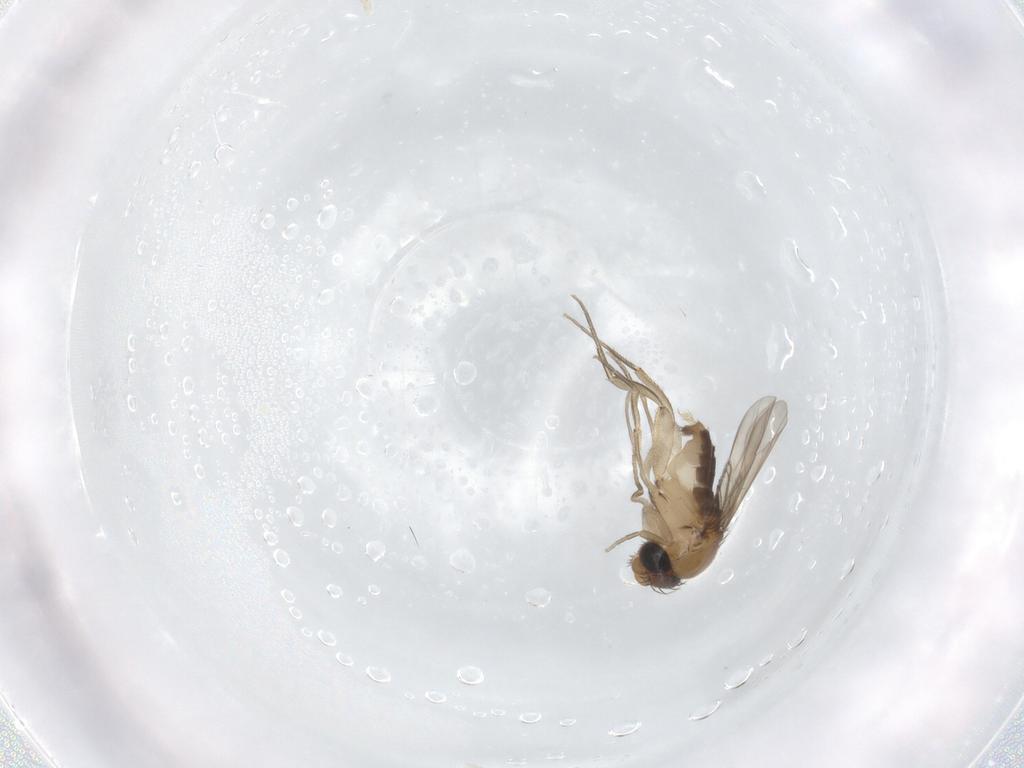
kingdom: Animalia
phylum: Arthropoda
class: Insecta
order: Diptera
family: Phoridae
